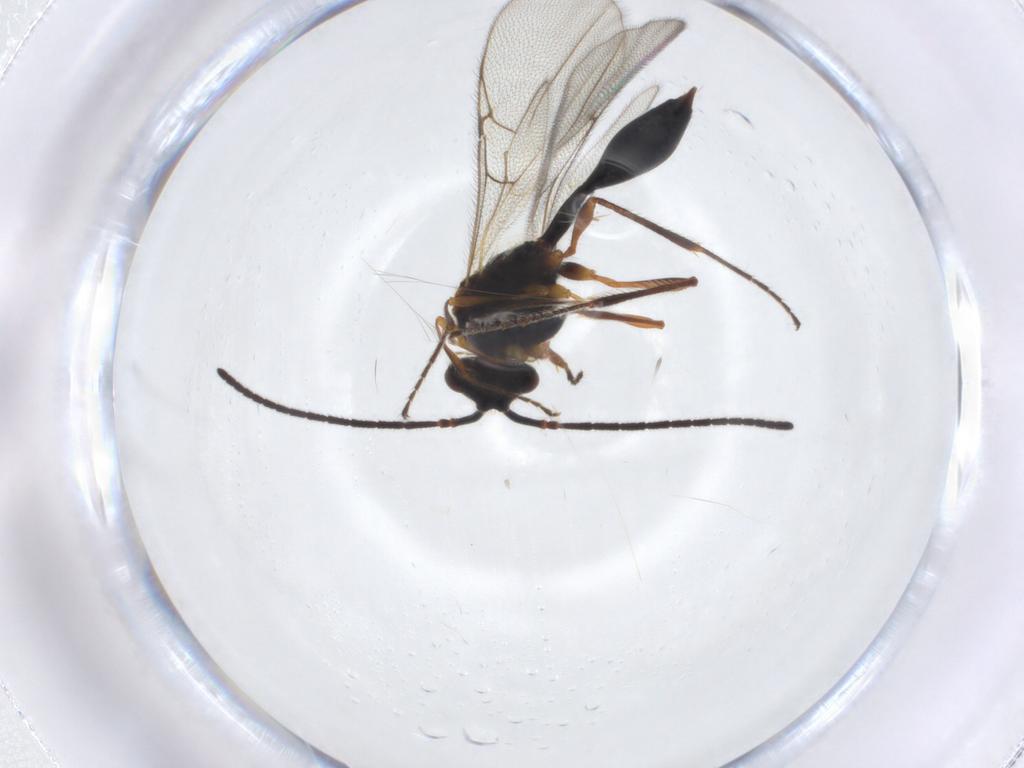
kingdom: Animalia
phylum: Arthropoda
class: Insecta
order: Hymenoptera
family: Diapriidae
